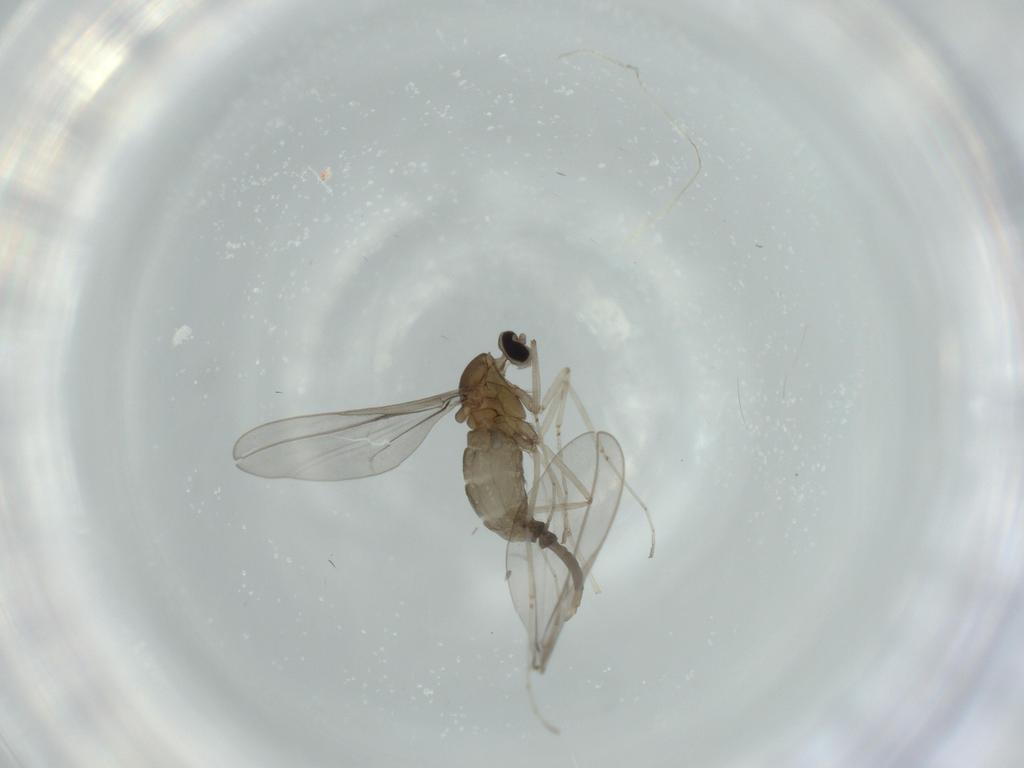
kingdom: Animalia
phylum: Arthropoda
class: Insecta
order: Diptera
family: Cecidomyiidae
